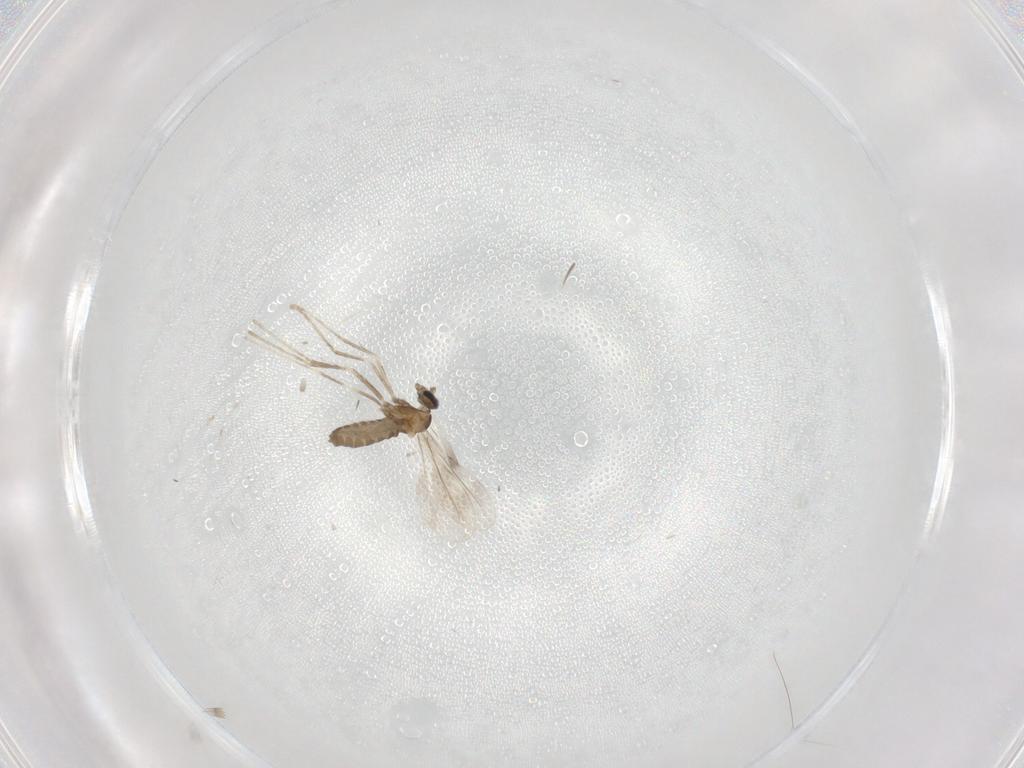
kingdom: Animalia
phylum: Arthropoda
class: Insecta
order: Diptera
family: Cecidomyiidae
